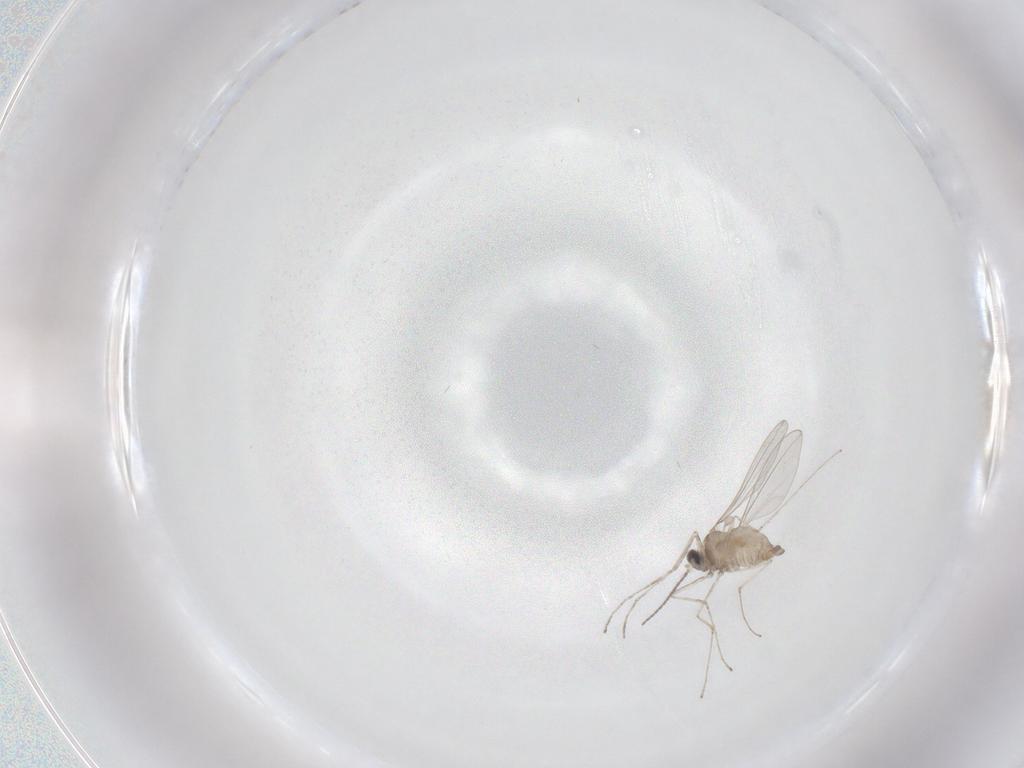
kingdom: Animalia
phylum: Arthropoda
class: Insecta
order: Diptera
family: Cecidomyiidae
